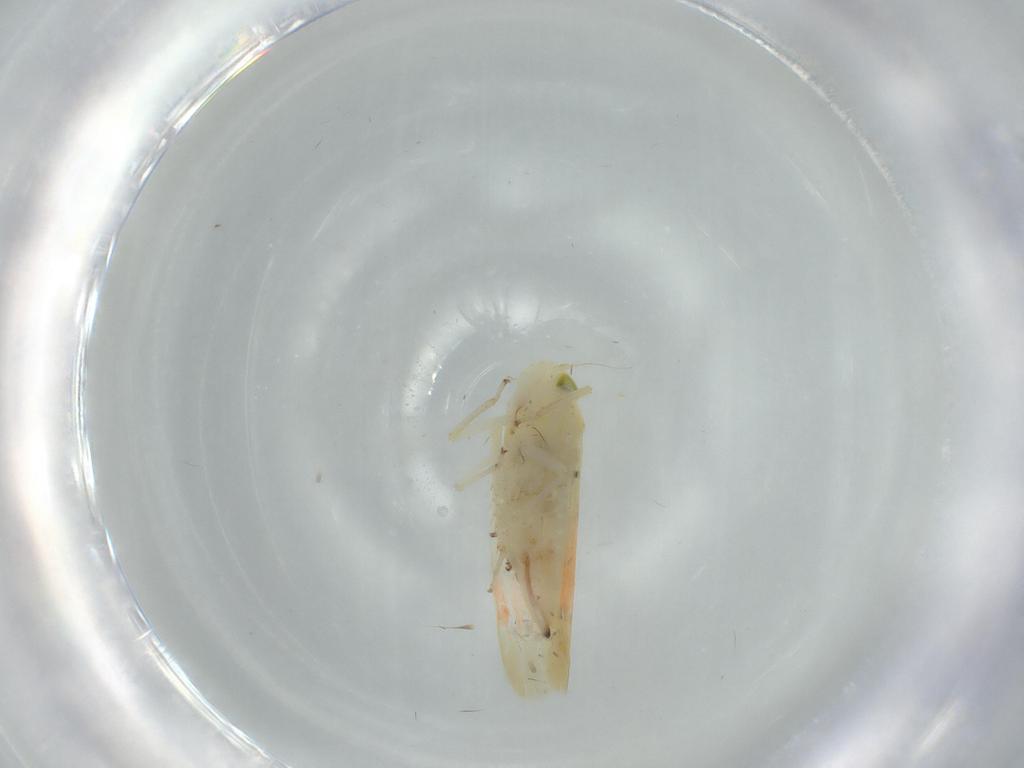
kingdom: Animalia
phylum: Arthropoda
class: Insecta
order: Hemiptera
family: Cicadellidae
